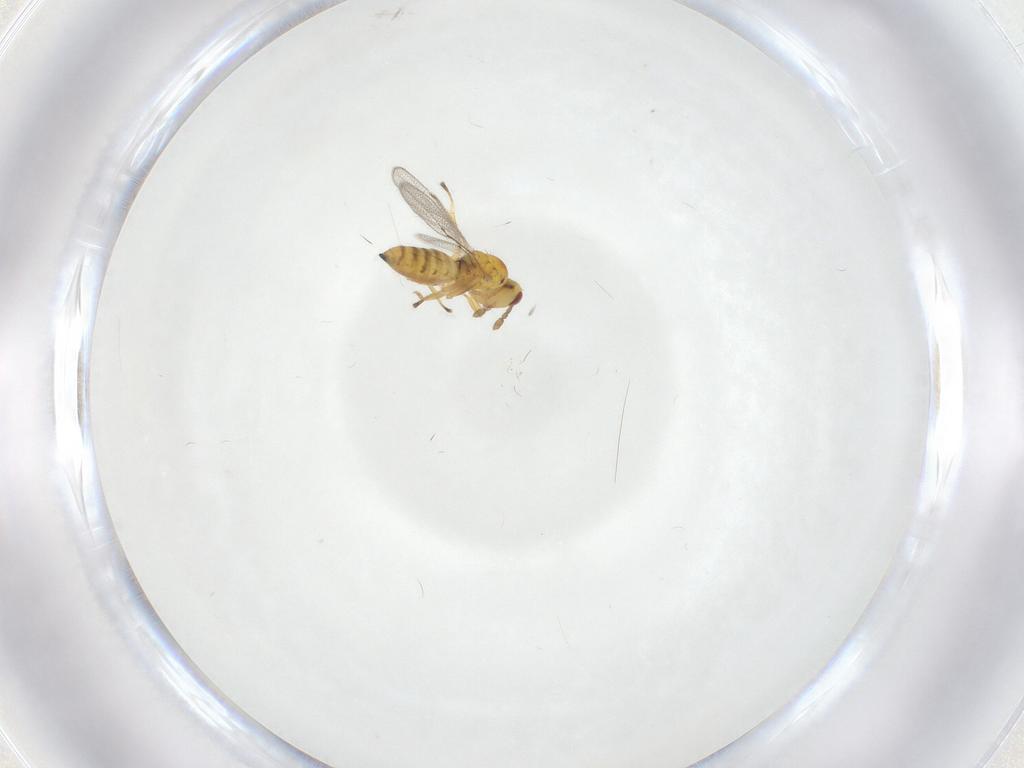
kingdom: Animalia
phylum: Arthropoda
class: Insecta
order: Hymenoptera
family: Eulophidae
